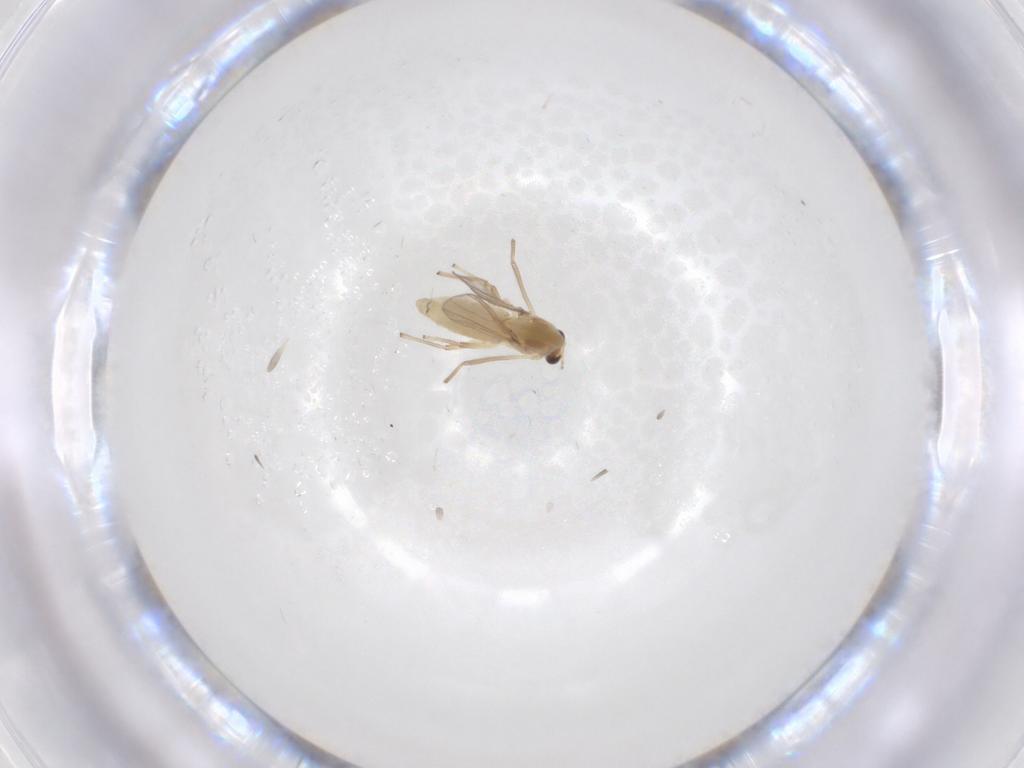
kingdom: Animalia
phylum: Arthropoda
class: Insecta
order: Diptera
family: Chironomidae
